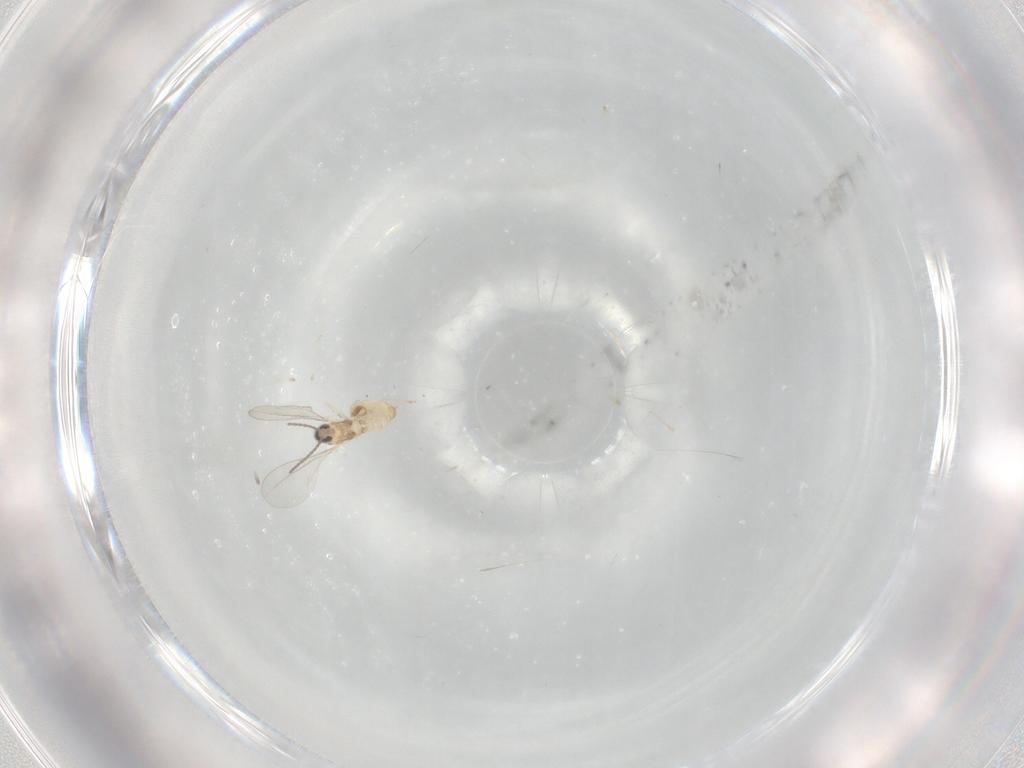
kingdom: Animalia
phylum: Arthropoda
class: Insecta
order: Diptera
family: Cecidomyiidae
